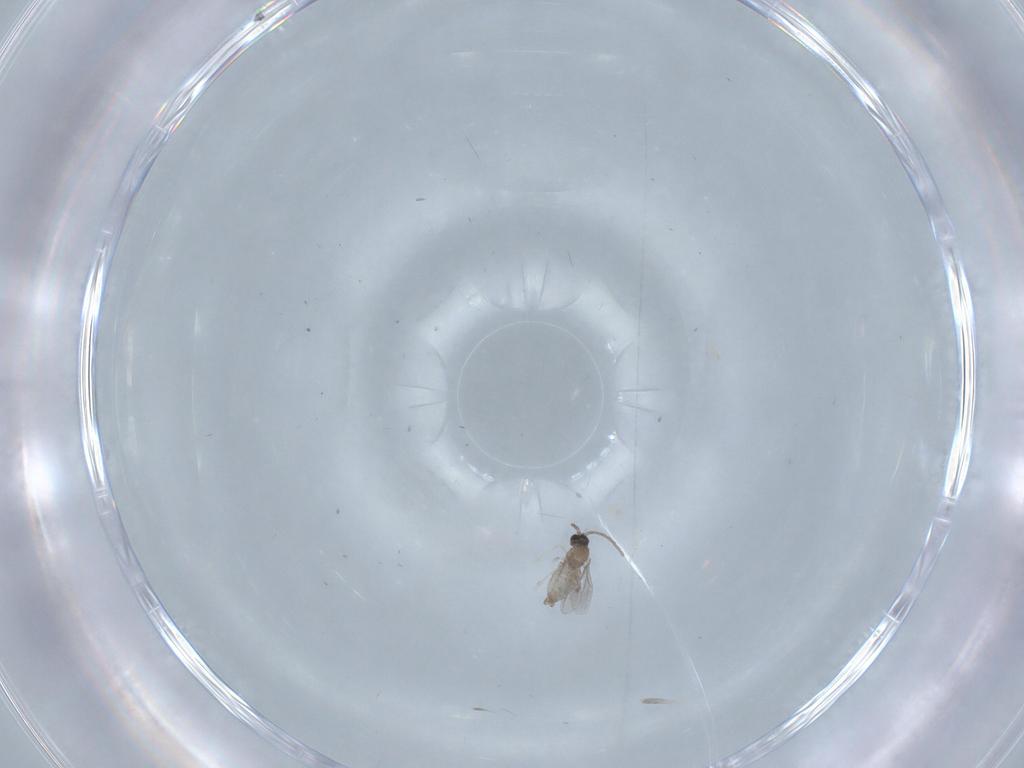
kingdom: Animalia
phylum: Arthropoda
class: Insecta
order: Diptera
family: Cecidomyiidae
